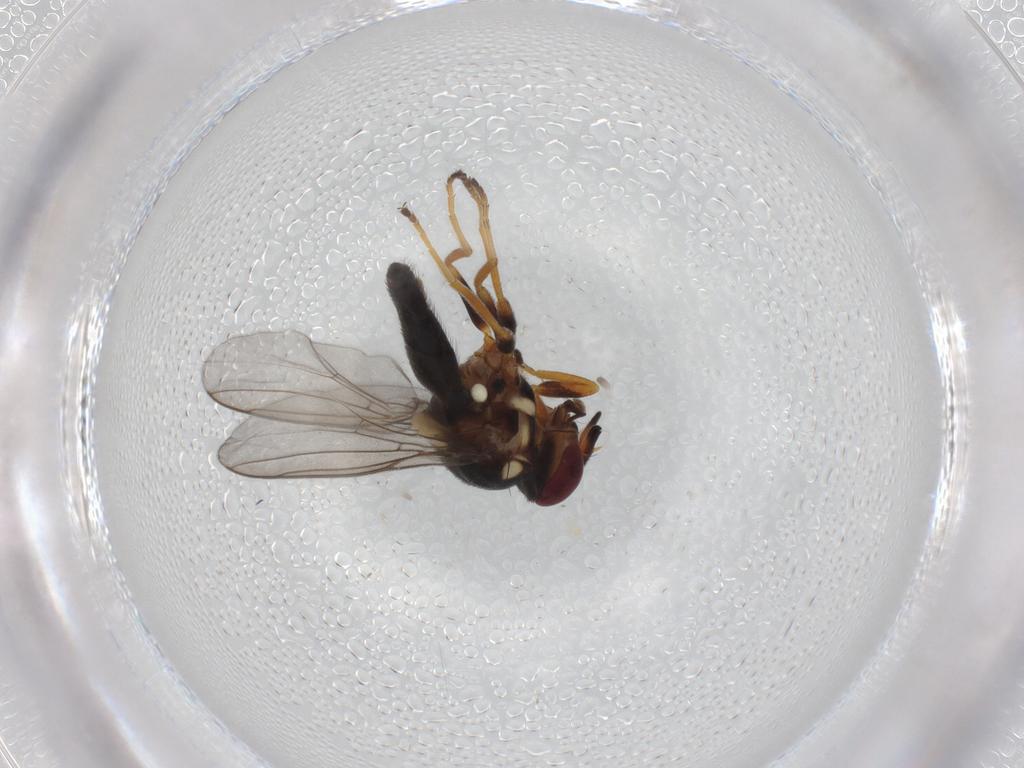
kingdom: Animalia
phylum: Arthropoda
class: Insecta
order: Diptera
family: Chloropidae
